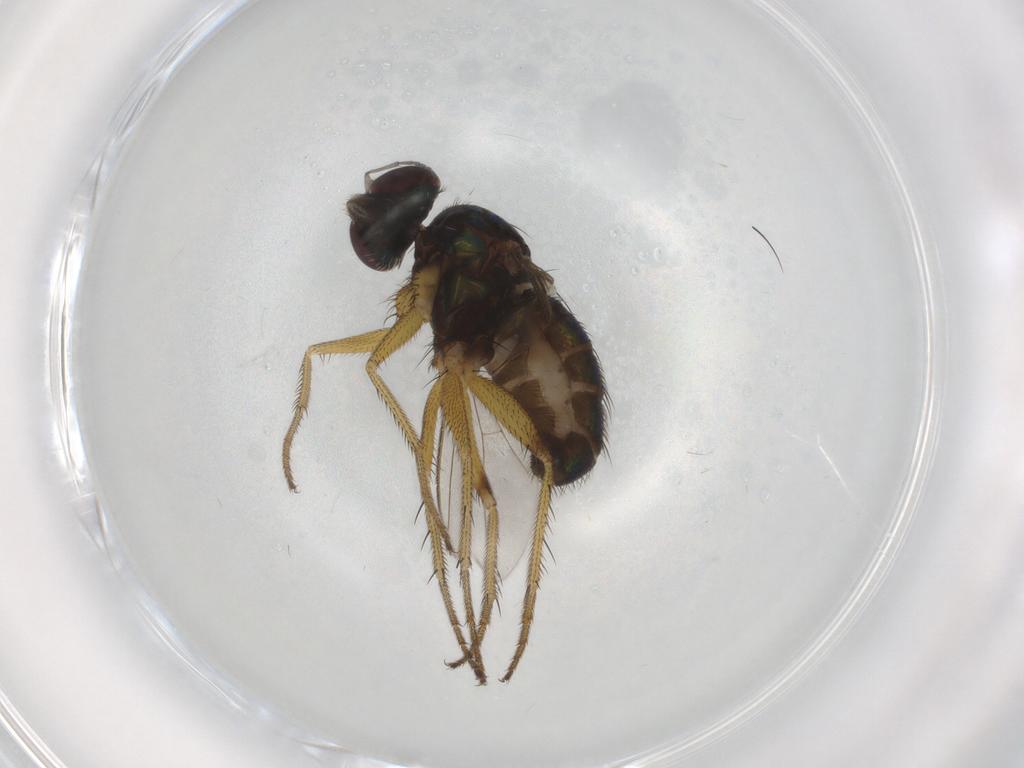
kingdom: Animalia
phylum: Arthropoda
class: Insecta
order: Diptera
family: Dolichopodidae
